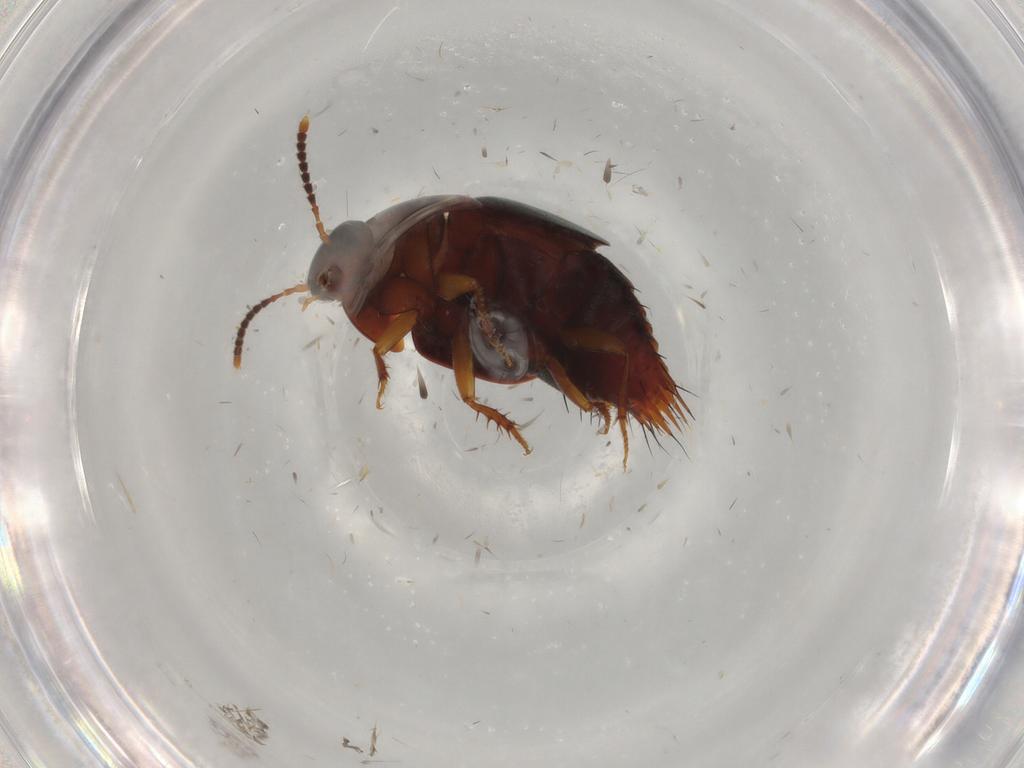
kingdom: Animalia
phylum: Arthropoda
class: Insecta
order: Coleoptera
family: Staphylinidae
